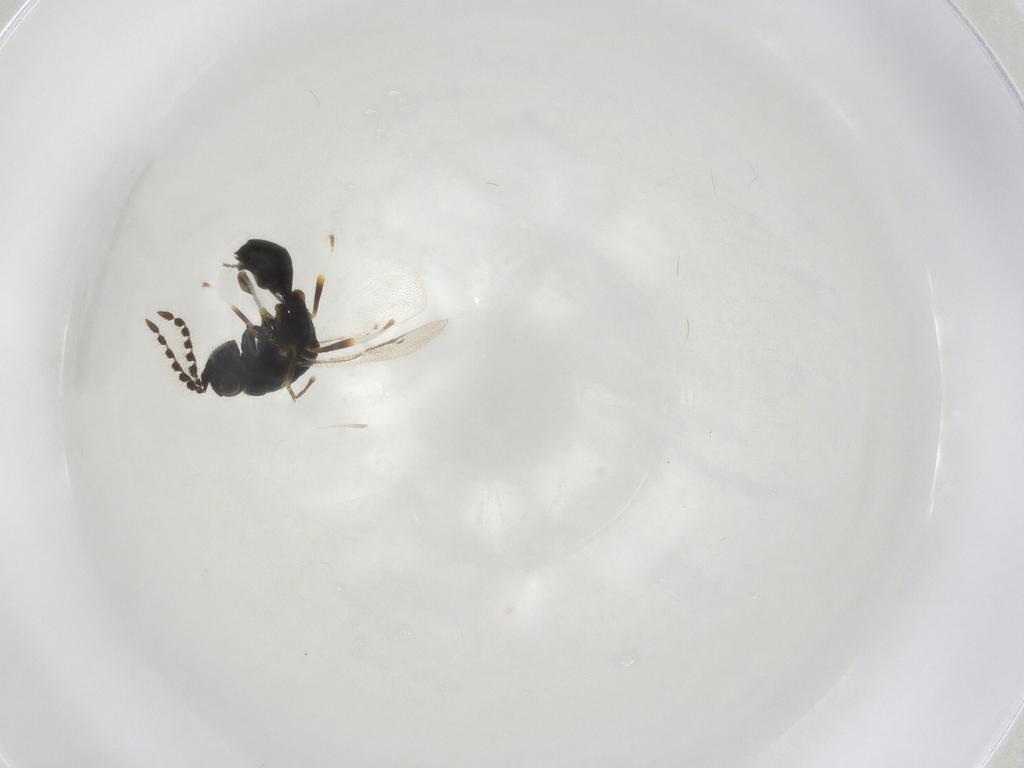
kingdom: Animalia
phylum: Arthropoda
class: Insecta
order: Hymenoptera
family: Eurytomidae
